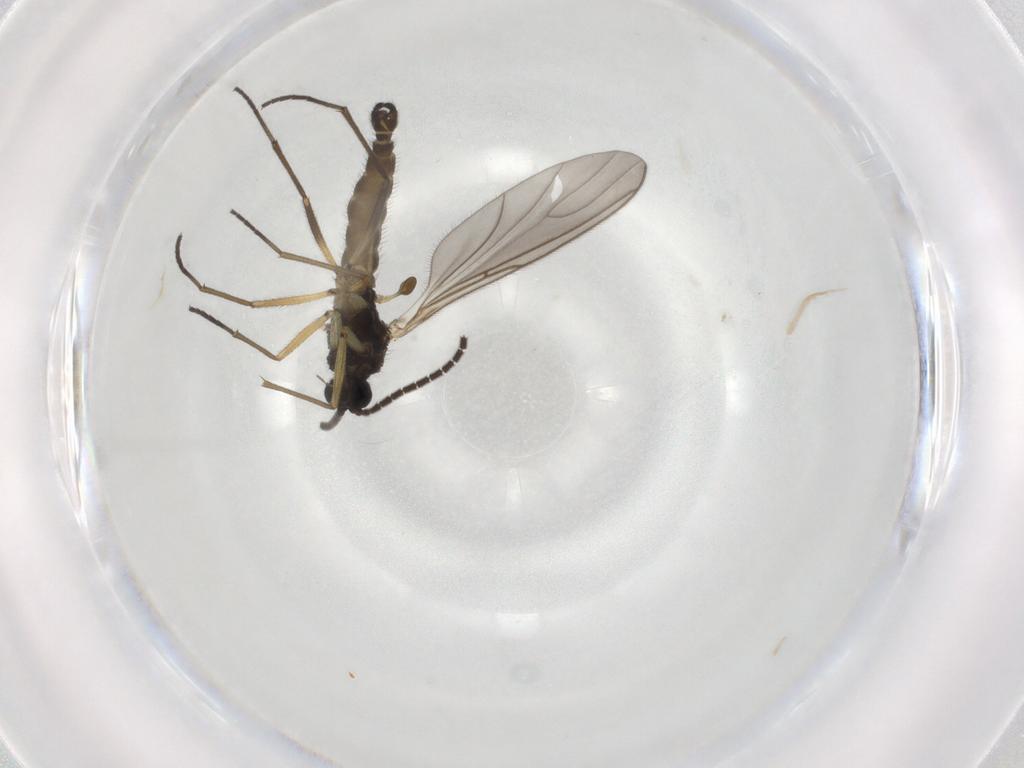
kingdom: Animalia
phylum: Arthropoda
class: Insecta
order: Diptera
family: Sciaridae
